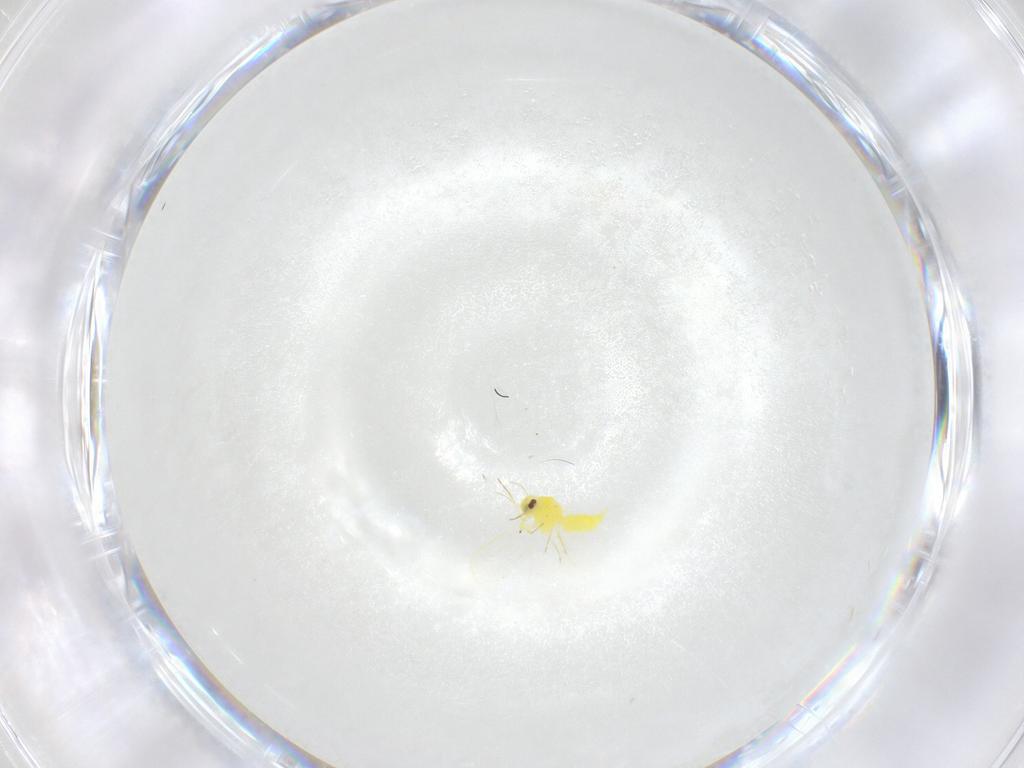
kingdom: Animalia
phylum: Arthropoda
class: Insecta
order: Hemiptera
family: Aleyrodidae
